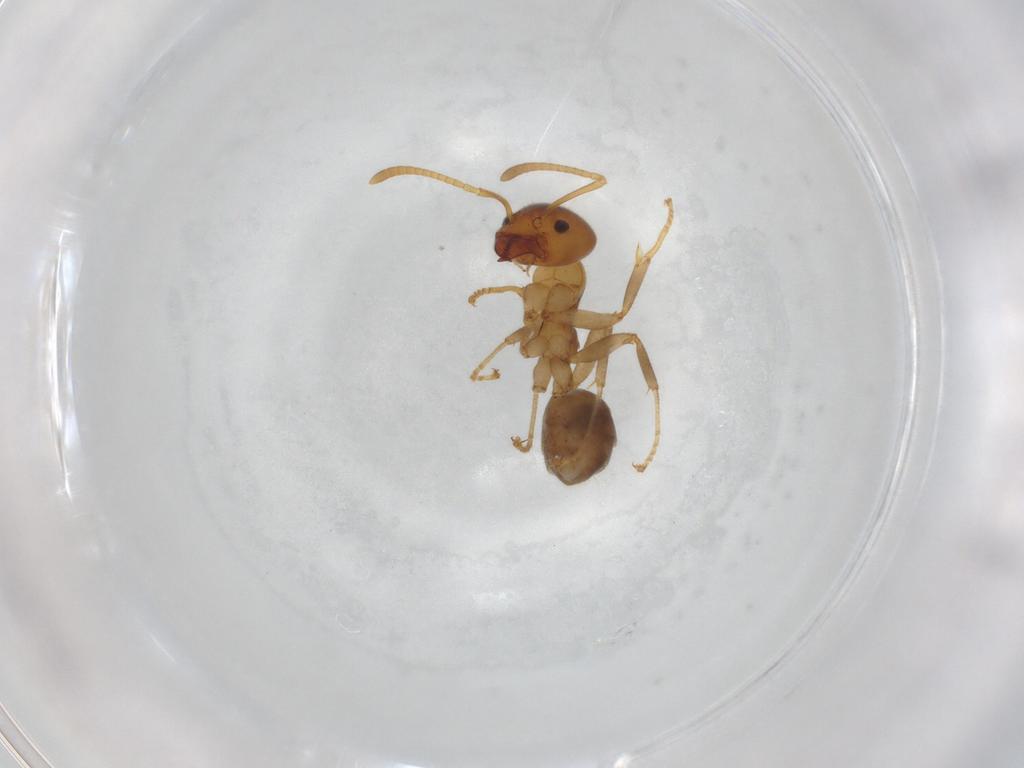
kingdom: Animalia
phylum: Arthropoda
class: Insecta
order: Hymenoptera
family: Formicidae
